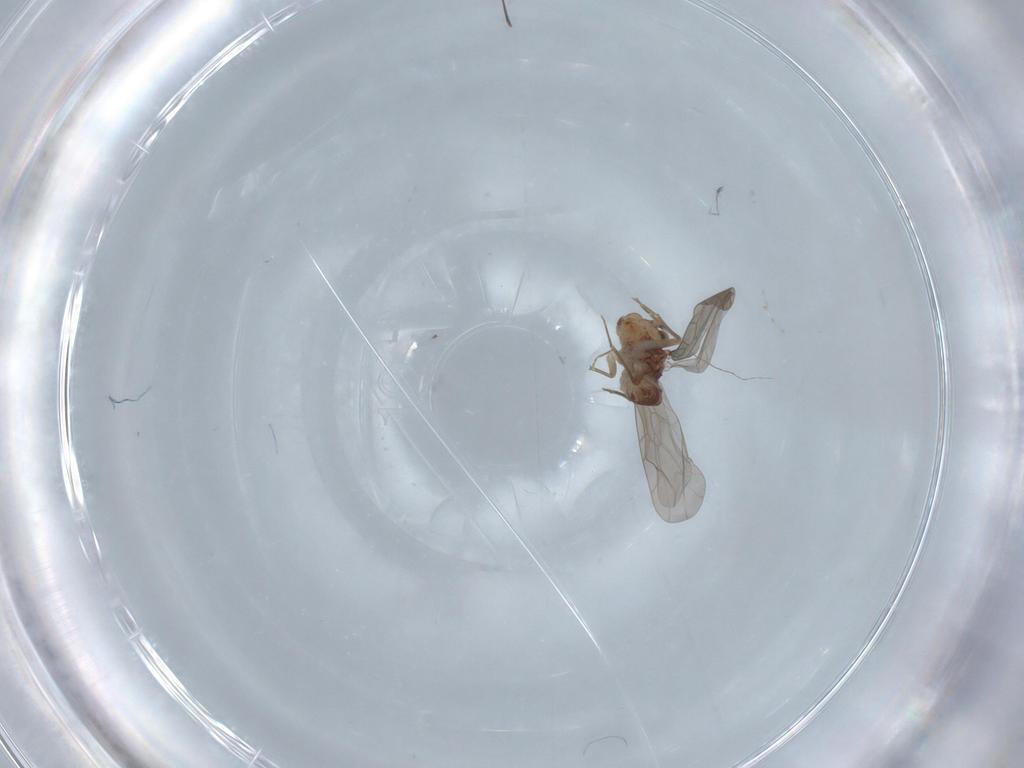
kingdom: Animalia
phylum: Arthropoda
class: Insecta
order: Psocodea
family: Lepidopsocidae
